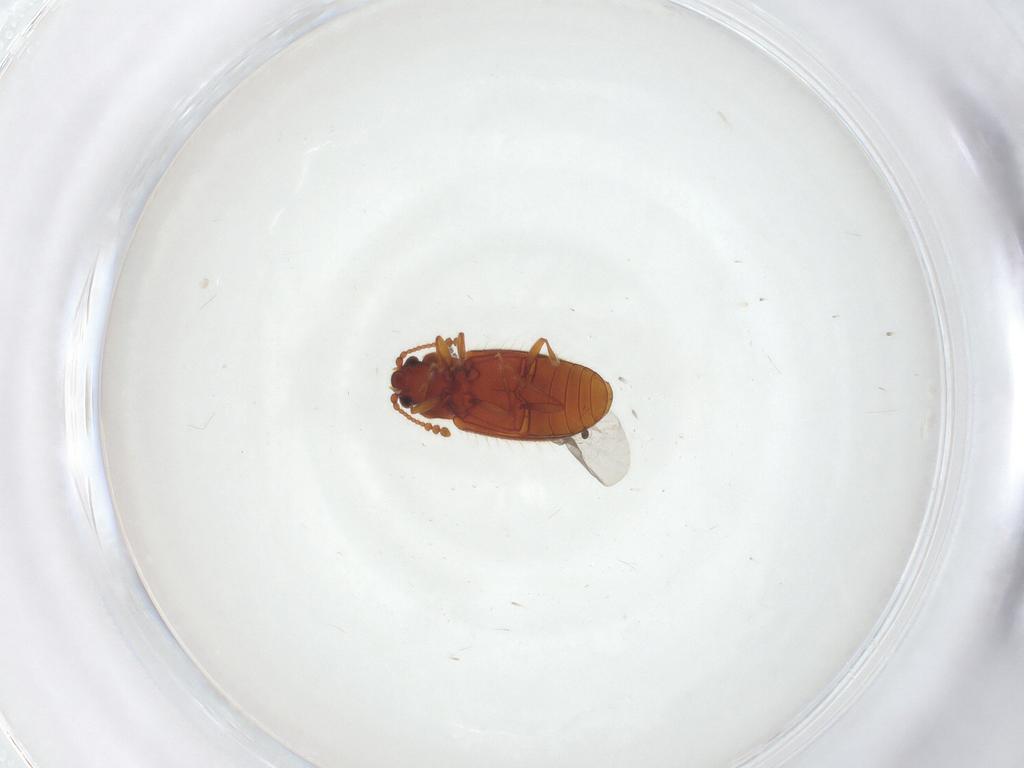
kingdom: Animalia
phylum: Arthropoda
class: Insecta
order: Coleoptera
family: Cryptophagidae
